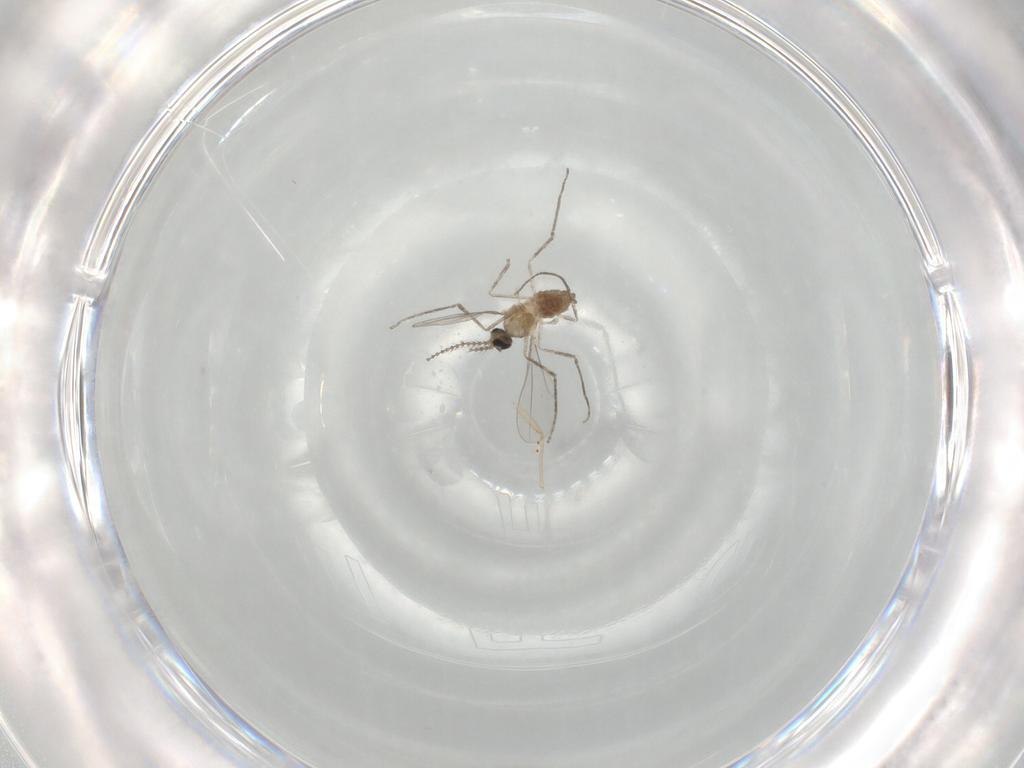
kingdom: Animalia
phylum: Arthropoda
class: Insecta
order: Diptera
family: Cecidomyiidae
